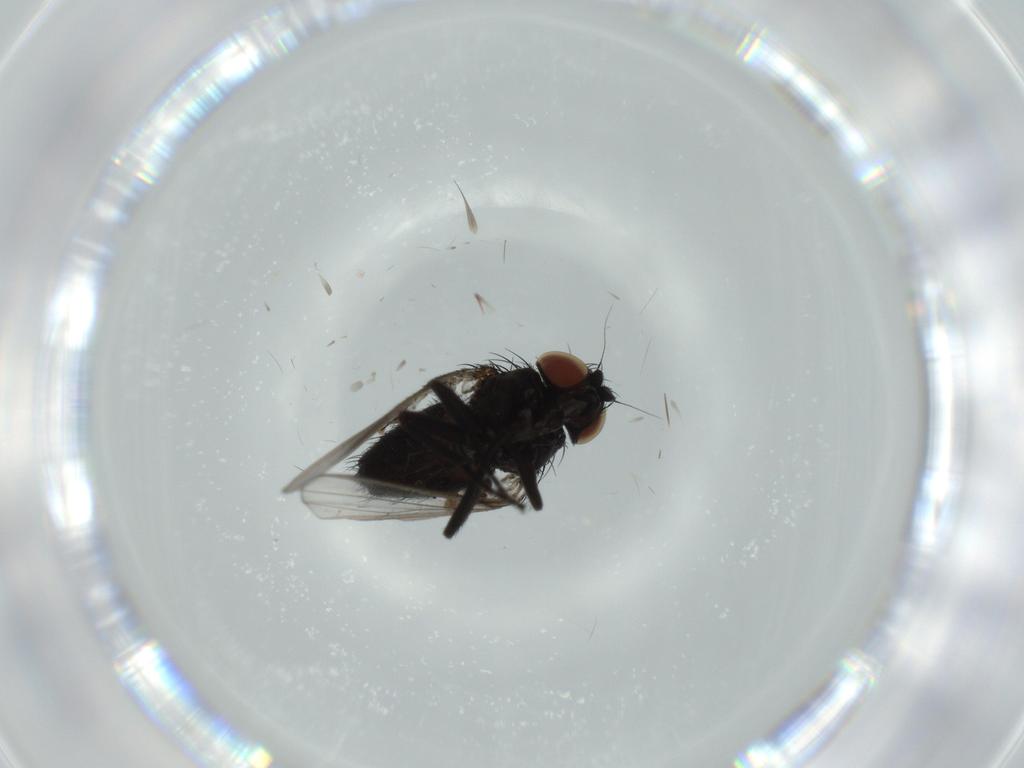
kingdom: Animalia
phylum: Arthropoda
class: Insecta
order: Diptera
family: Milichiidae
